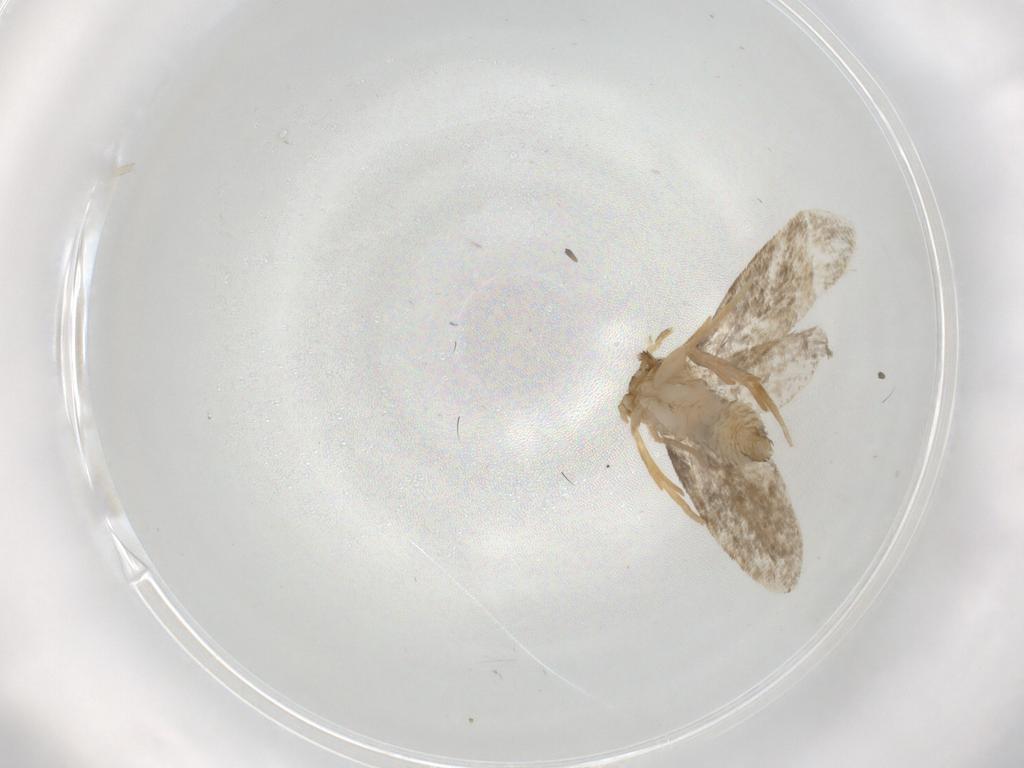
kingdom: Animalia
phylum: Arthropoda
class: Insecta
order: Lepidoptera
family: Psychidae
